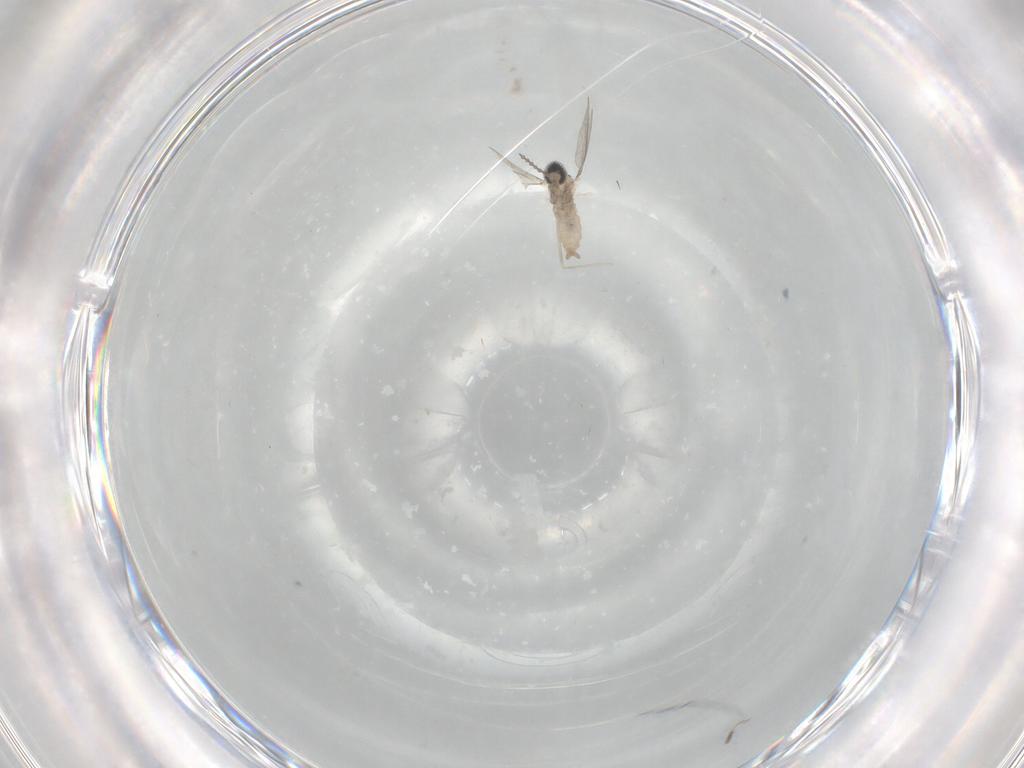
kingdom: Animalia
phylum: Arthropoda
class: Insecta
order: Diptera
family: Cecidomyiidae
